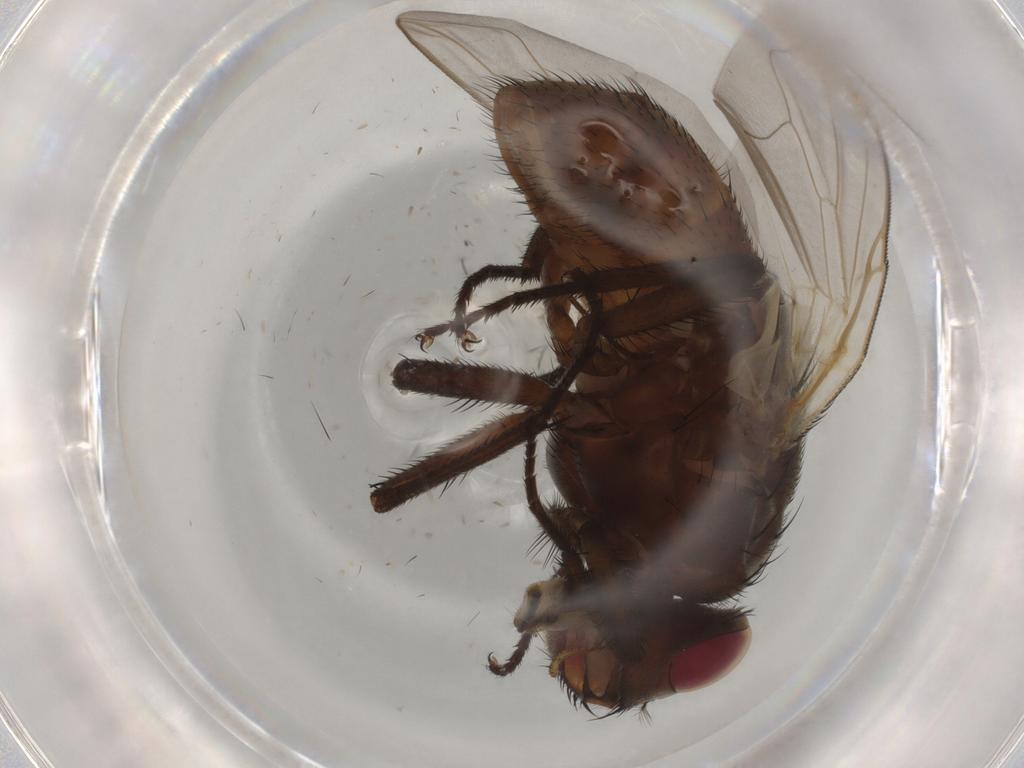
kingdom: Animalia
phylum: Arthropoda
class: Insecta
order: Diptera
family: Muscidae
